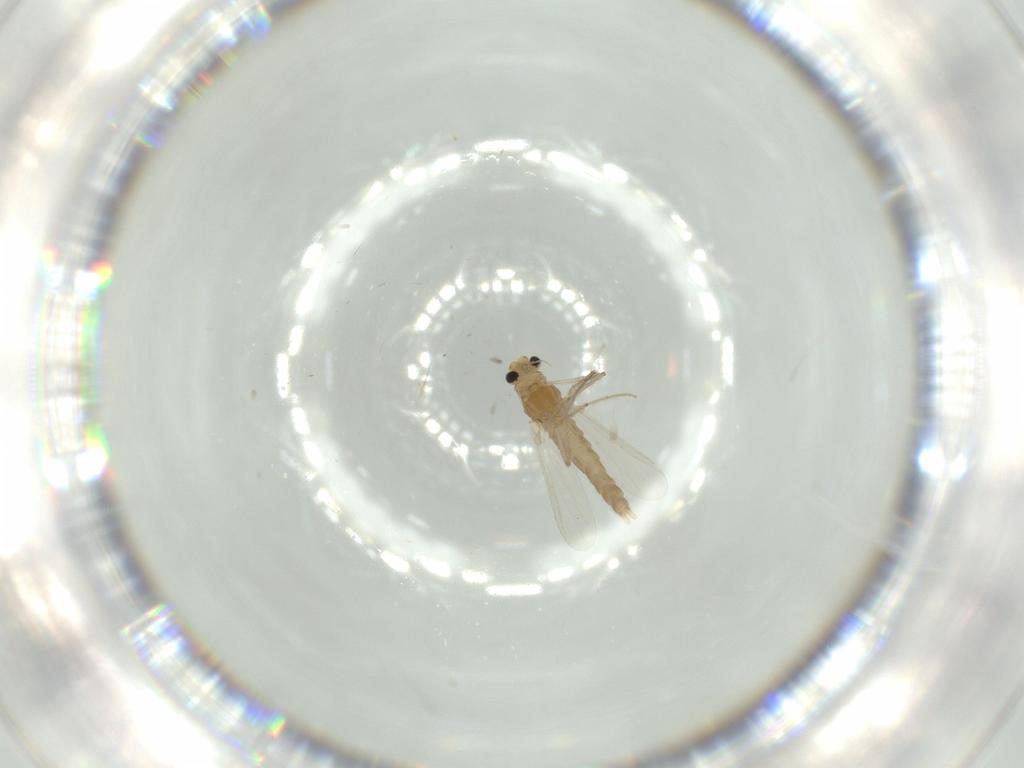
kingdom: Animalia
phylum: Arthropoda
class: Insecta
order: Diptera
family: Chironomidae
